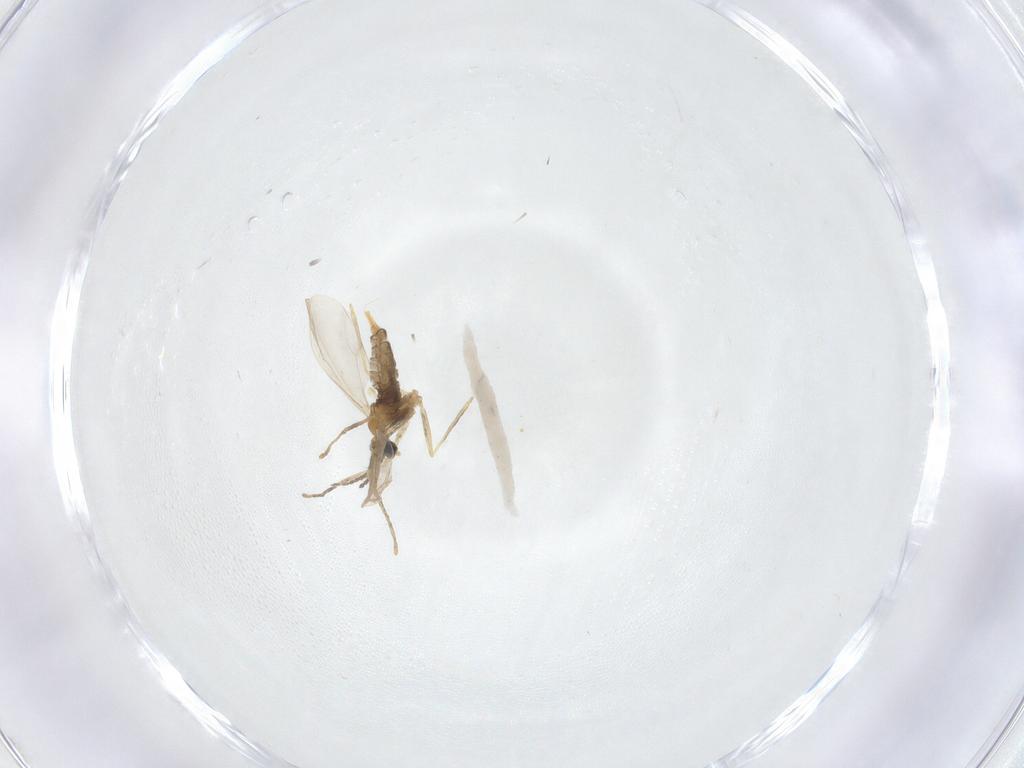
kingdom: Animalia
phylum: Arthropoda
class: Insecta
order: Diptera
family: Cecidomyiidae
